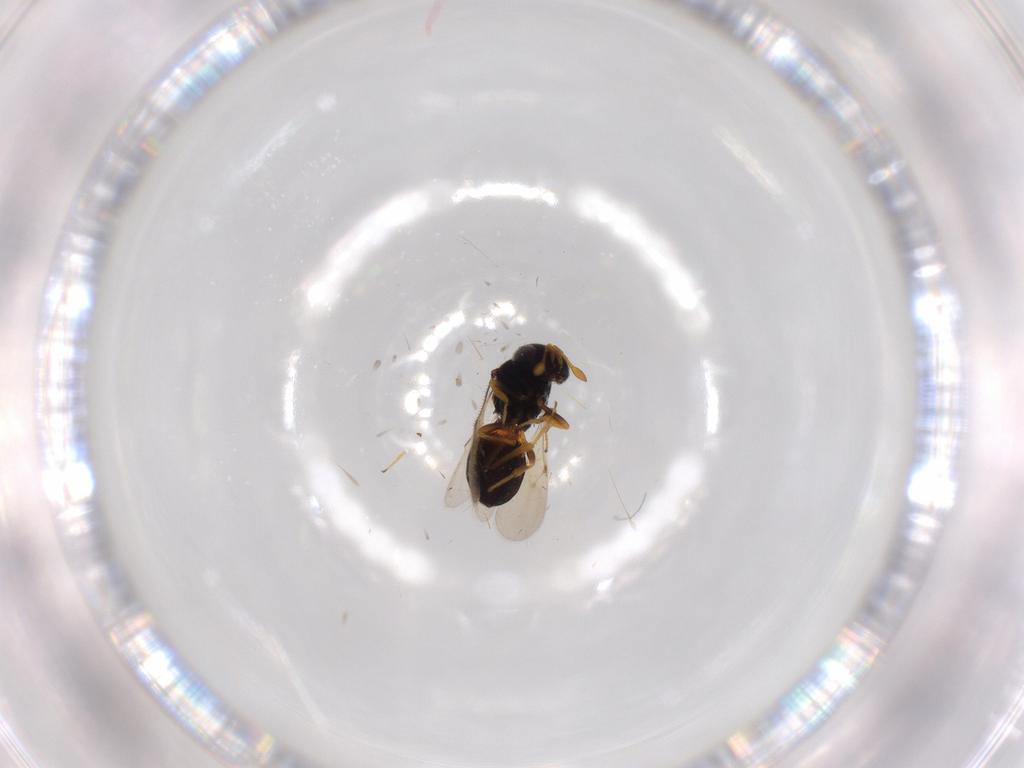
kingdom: Animalia
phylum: Arthropoda
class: Insecta
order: Hymenoptera
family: Scelionidae
